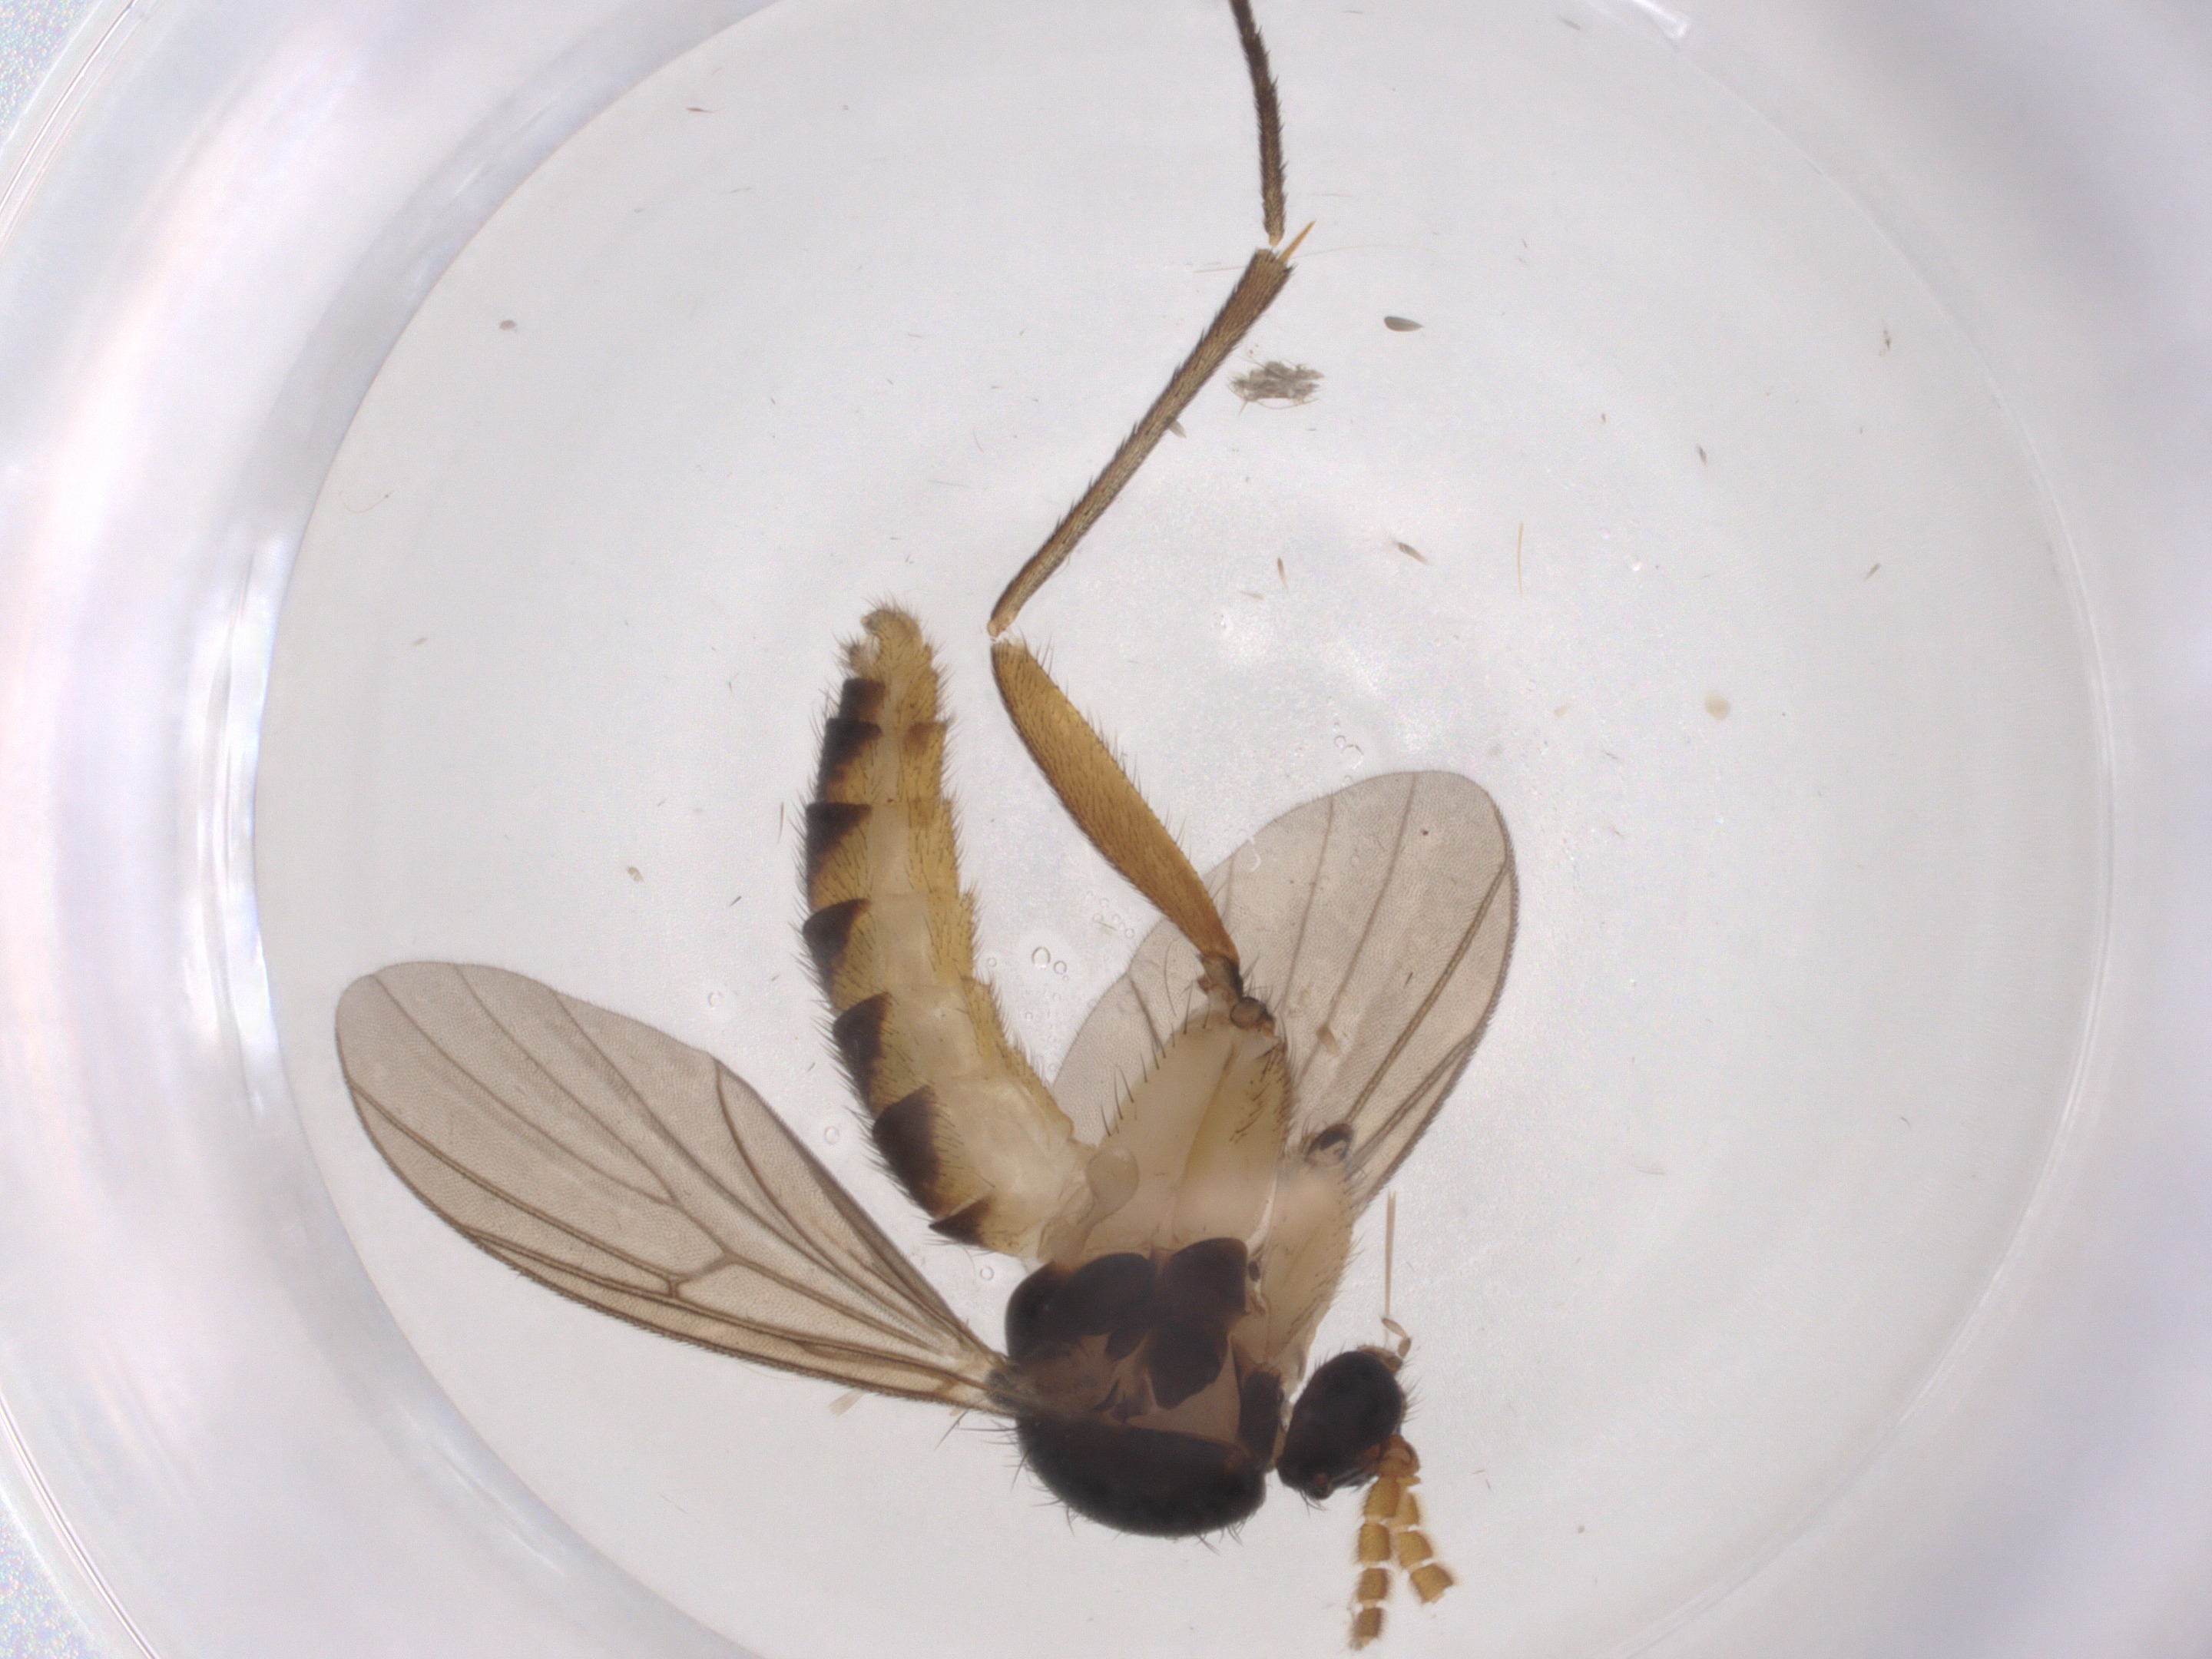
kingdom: Animalia
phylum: Arthropoda
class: Insecta
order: Diptera
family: Mycetophilidae
